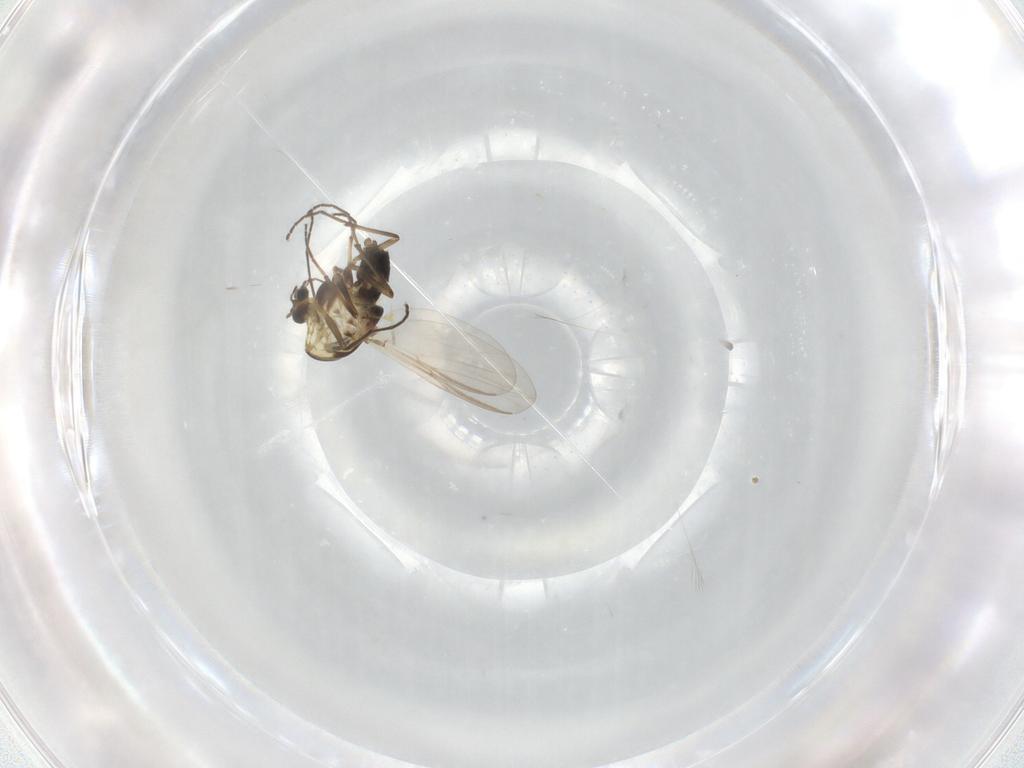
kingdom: Animalia
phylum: Arthropoda
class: Insecta
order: Diptera
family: Chironomidae
